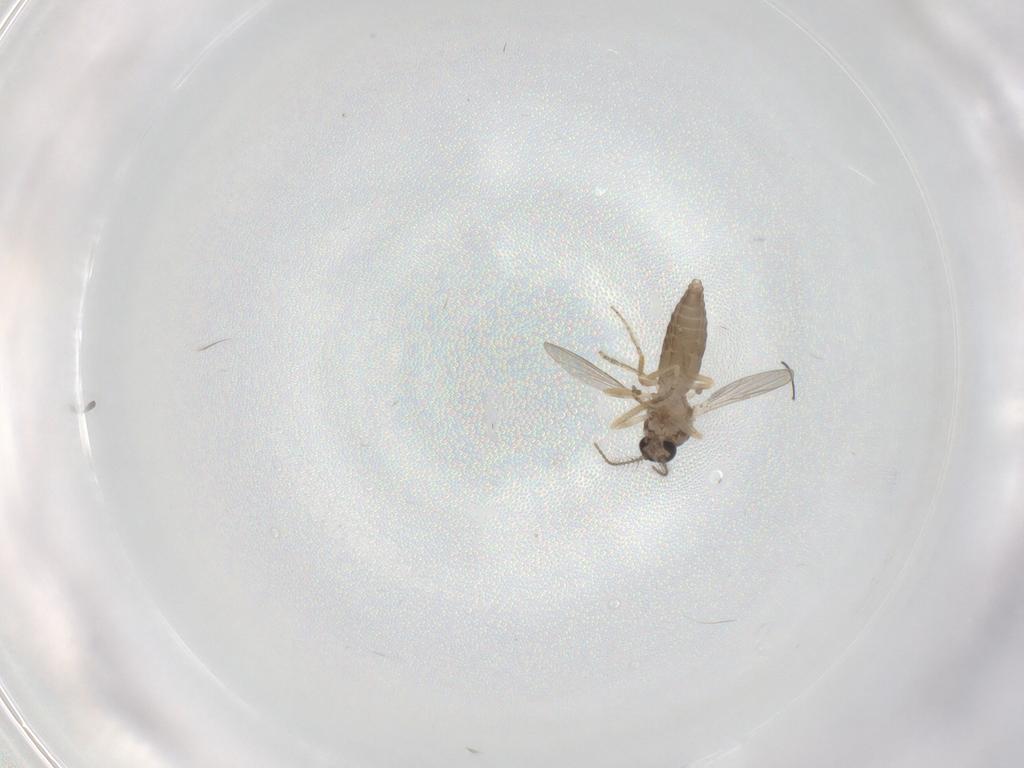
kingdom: Animalia
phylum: Arthropoda
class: Insecta
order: Diptera
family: Ceratopogonidae
